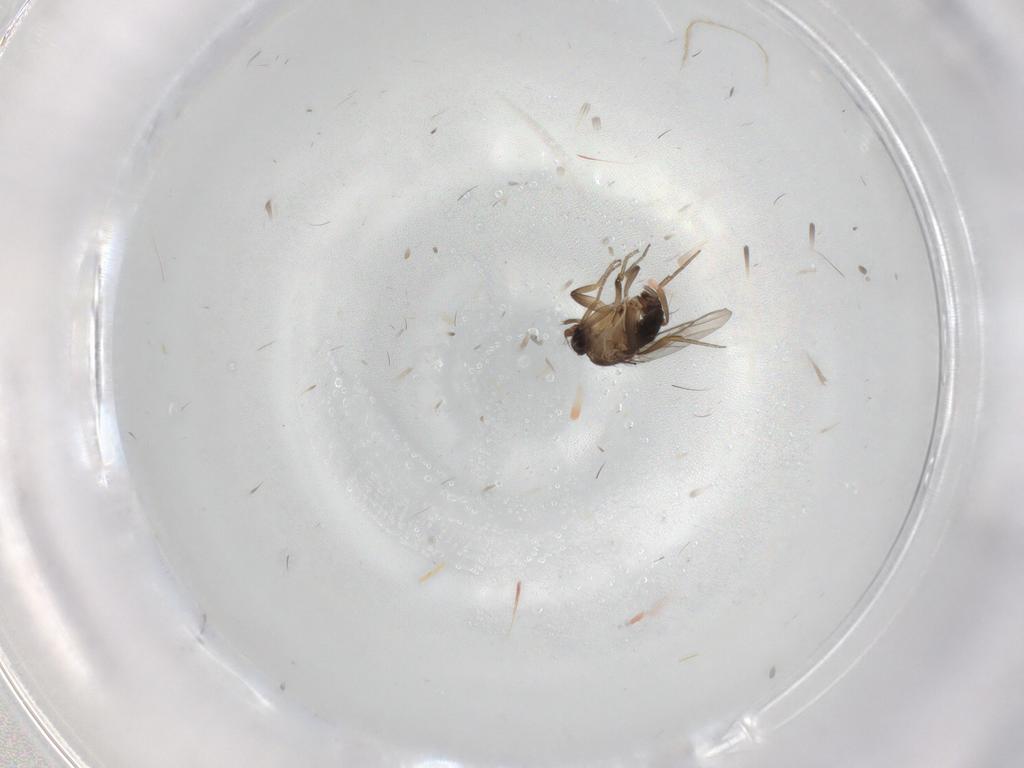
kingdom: Animalia
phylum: Arthropoda
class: Insecta
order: Diptera
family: Phoridae
